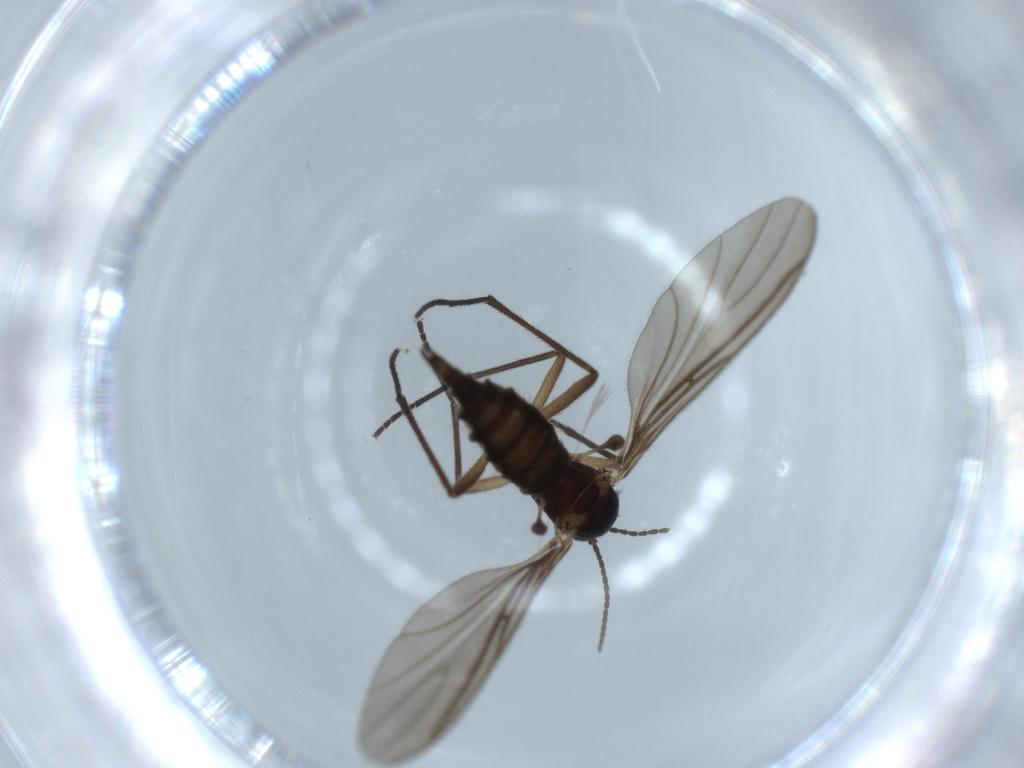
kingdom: Animalia
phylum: Arthropoda
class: Insecta
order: Diptera
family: Sciaridae
